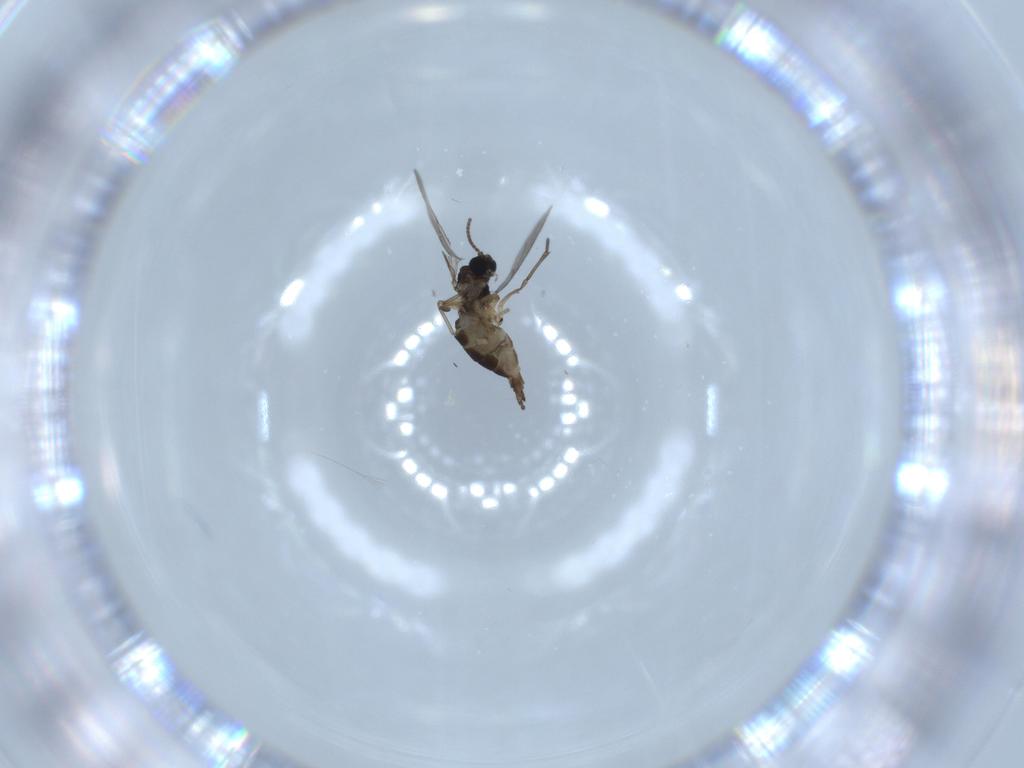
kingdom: Animalia
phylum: Arthropoda
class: Insecta
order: Diptera
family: Sciaridae
